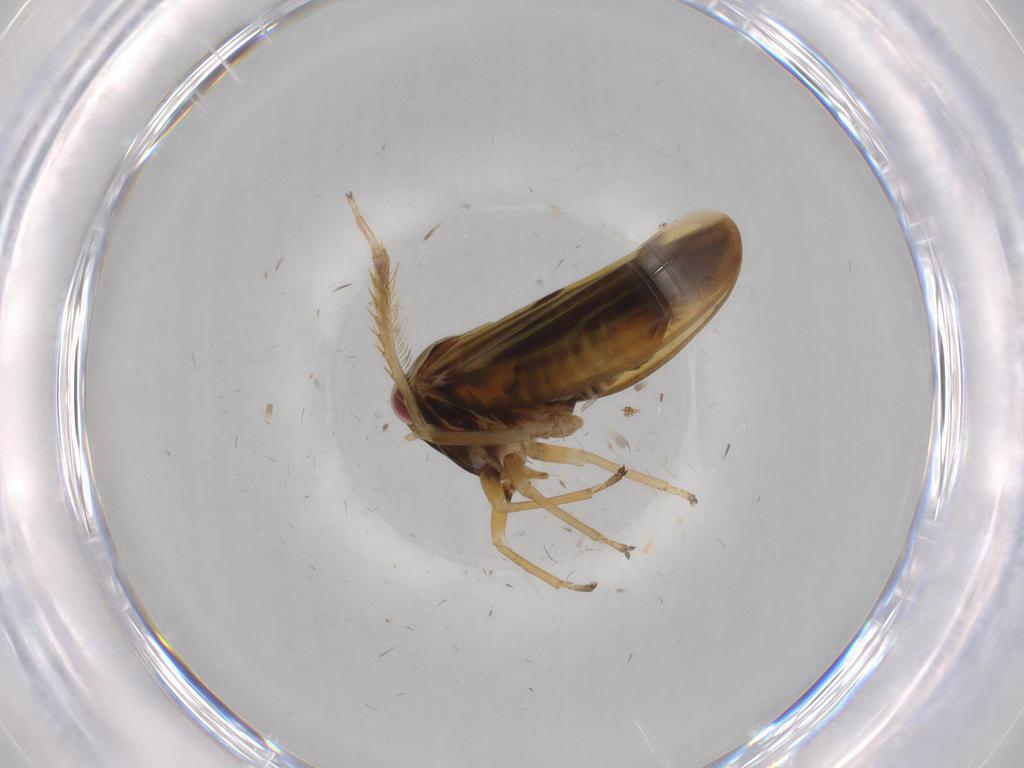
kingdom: Animalia
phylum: Arthropoda
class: Insecta
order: Hemiptera
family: Cicadellidae
